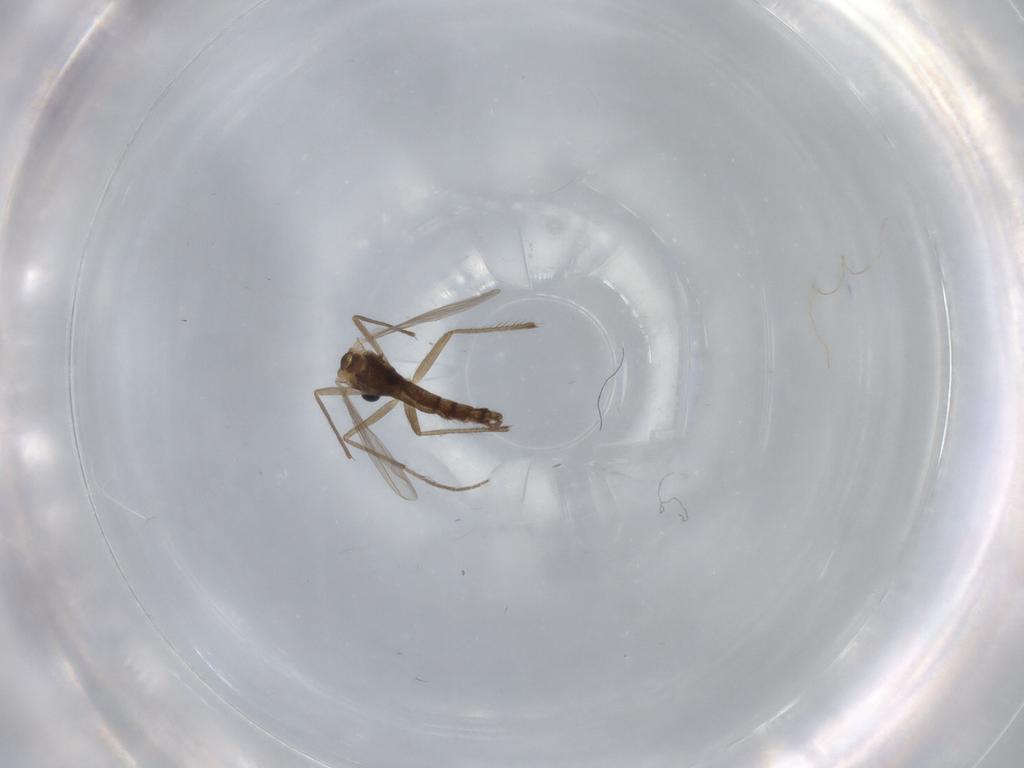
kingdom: Animalia
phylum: Arthropoda
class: Insecta
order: Diptera
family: Chironomidae
